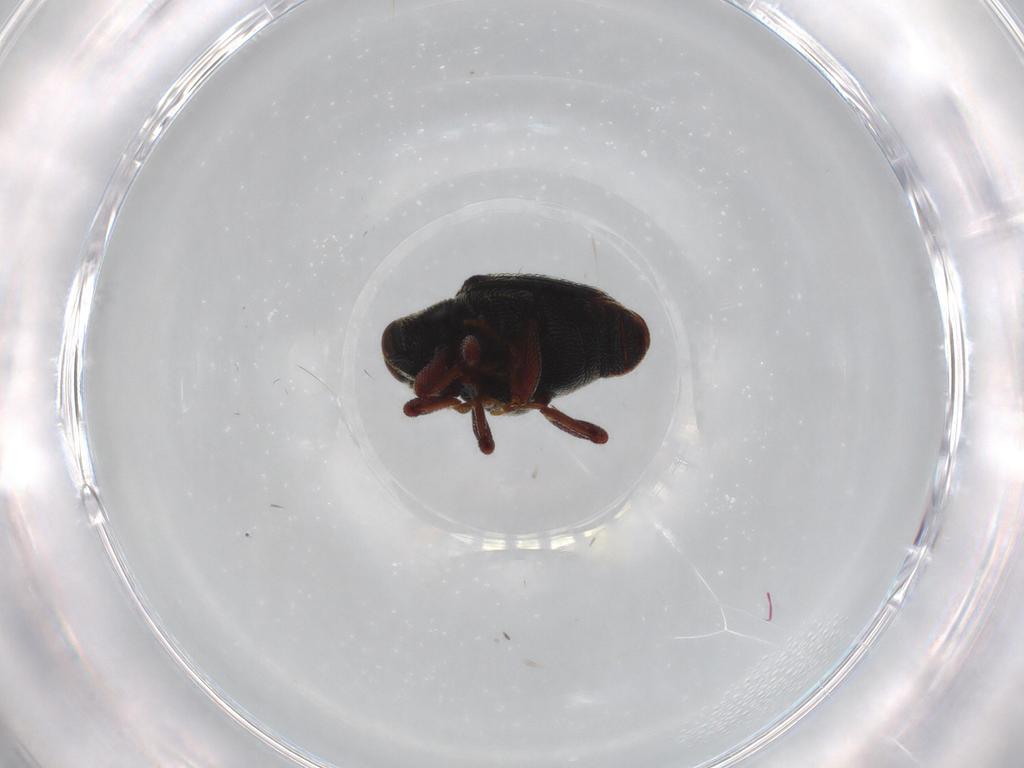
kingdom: Animalia
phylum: Arthropoda
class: Insecta
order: Coleoptera
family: Curculionidae
